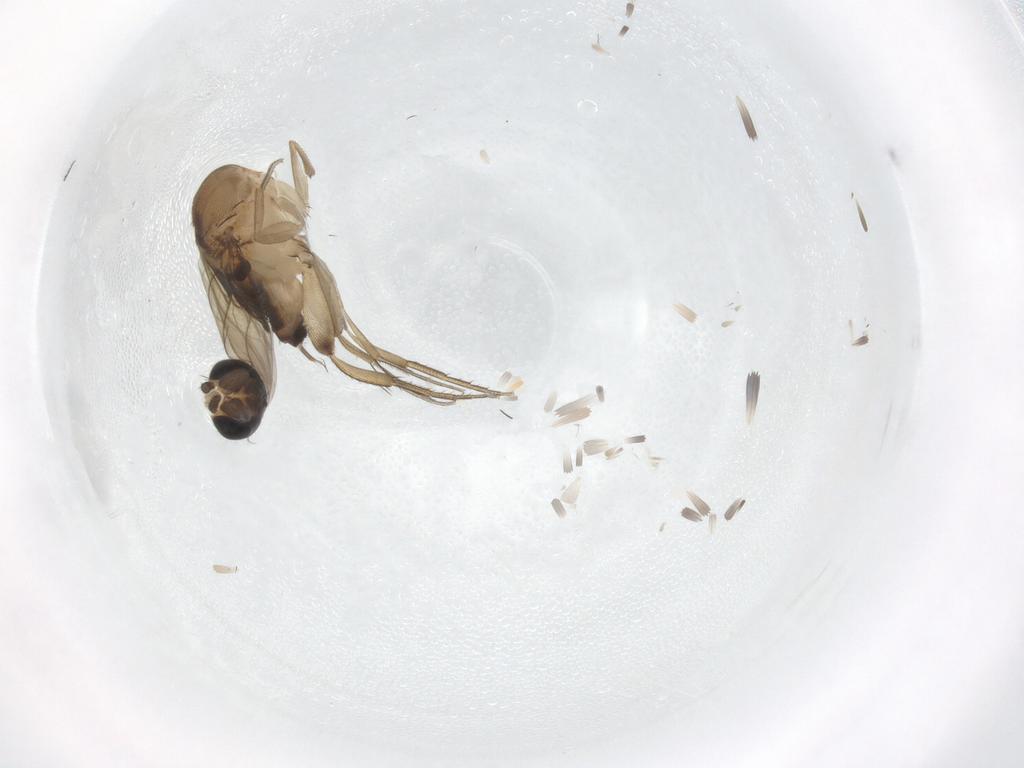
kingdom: Animalia
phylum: Arthropoda
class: Insecta
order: Diptera
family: Phoridae
